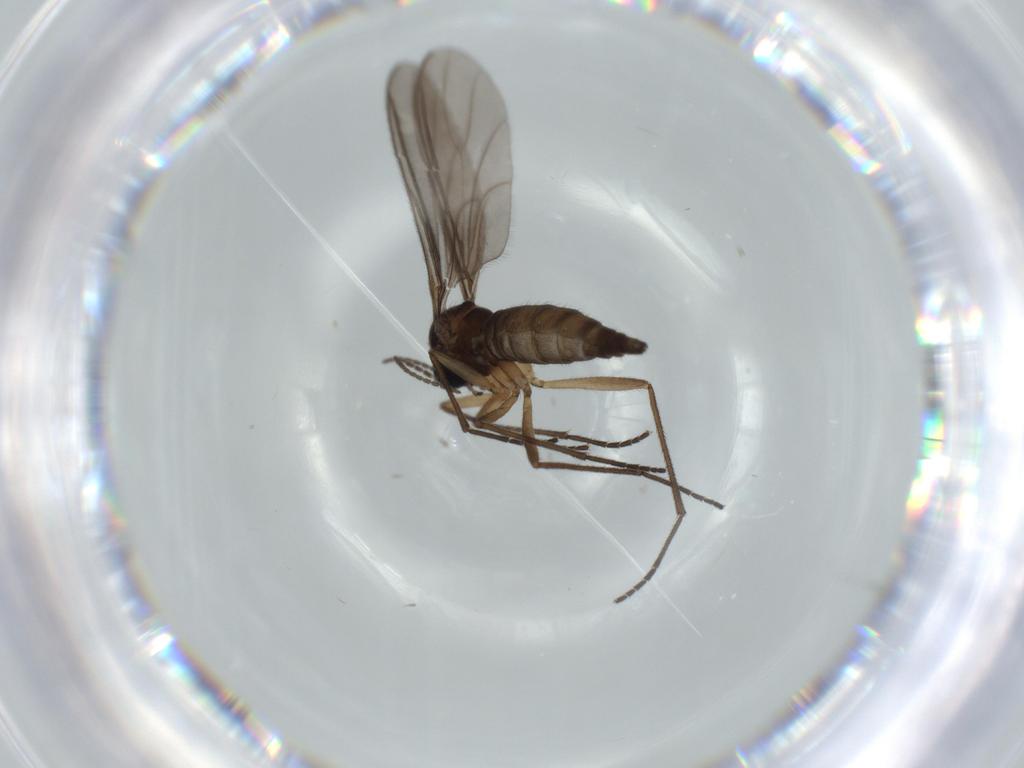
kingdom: Animalia
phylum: Arthropoda
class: Insecta
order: Diptera
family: Sciaridae
